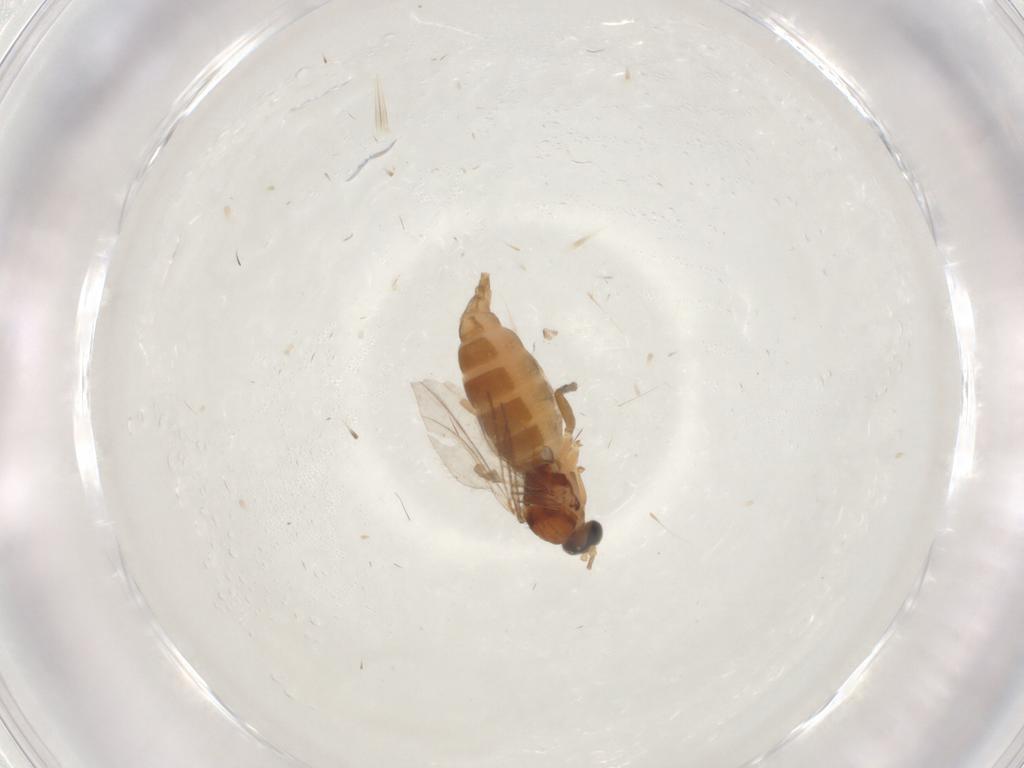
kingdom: Animalia
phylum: Arthropoda
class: Insecta
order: Diptera
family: Sciaridae
